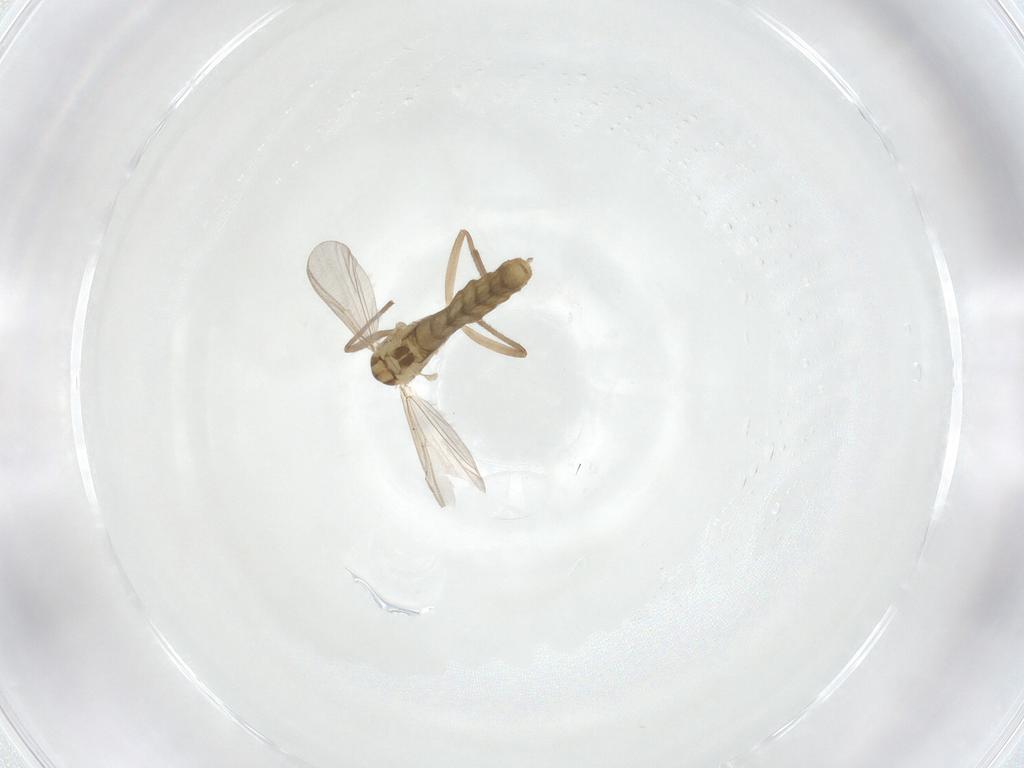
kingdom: Animalia
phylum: Arthropoda
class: Insecta
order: Diptera
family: Chironomidae
